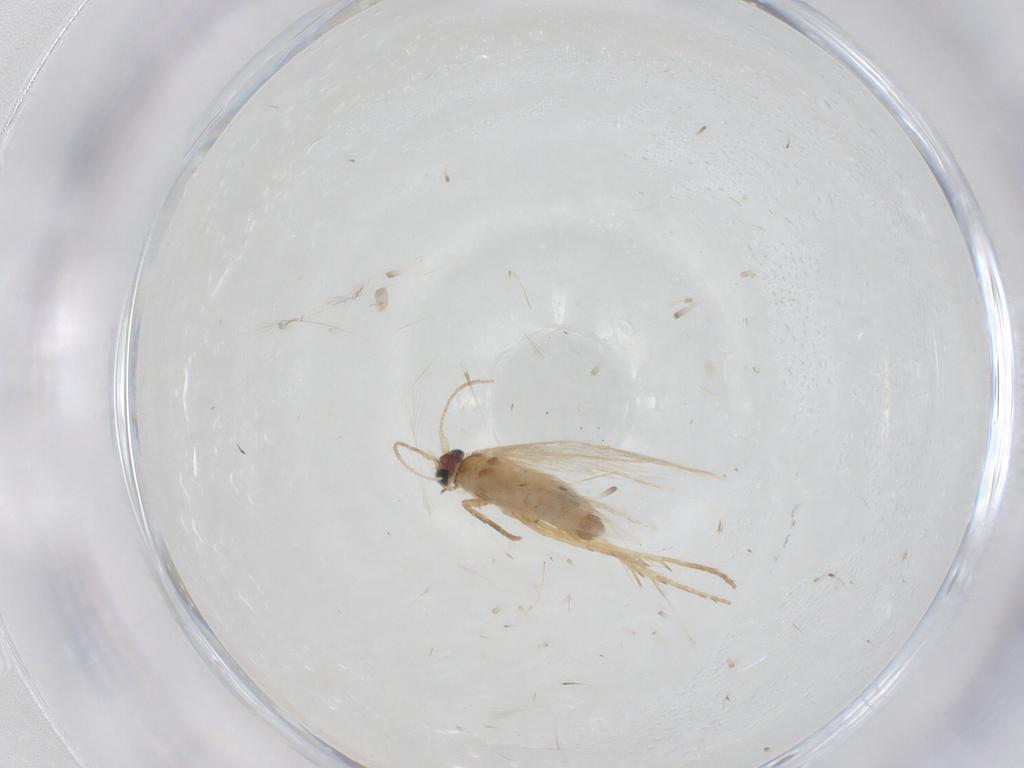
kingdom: Animalia
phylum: Arthropoda
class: Insecta
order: Lepidoptera
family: Nepticulidae
